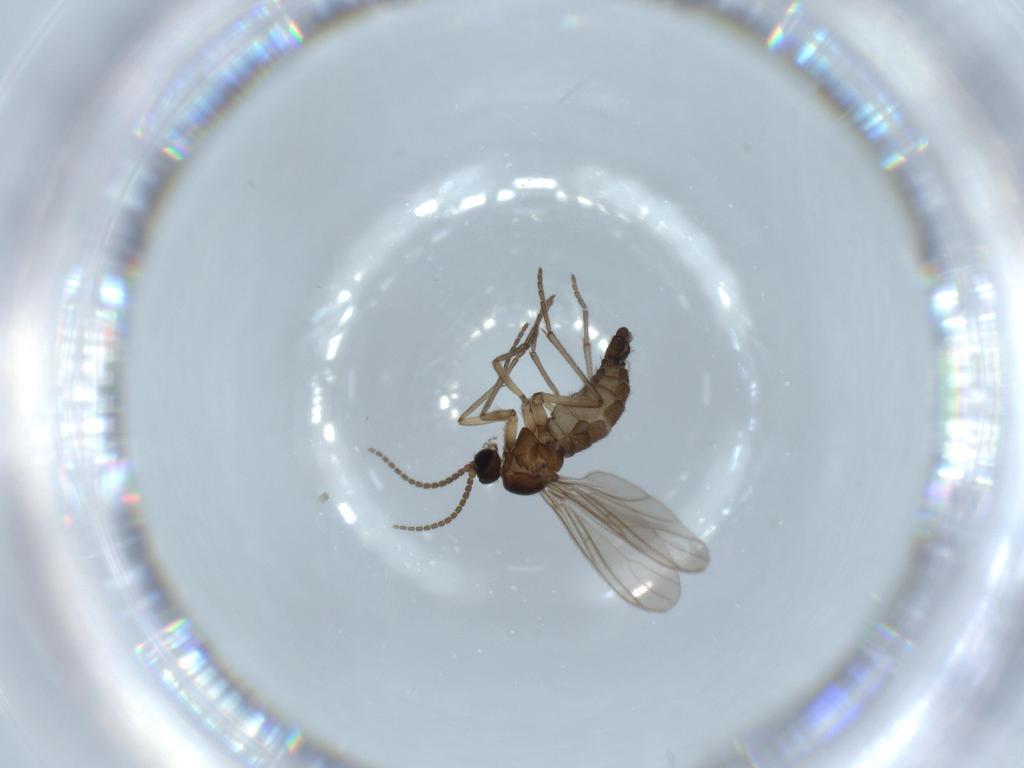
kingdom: Animalia
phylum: Arthropoda
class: Insecta
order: Diptera
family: Sciaridae
